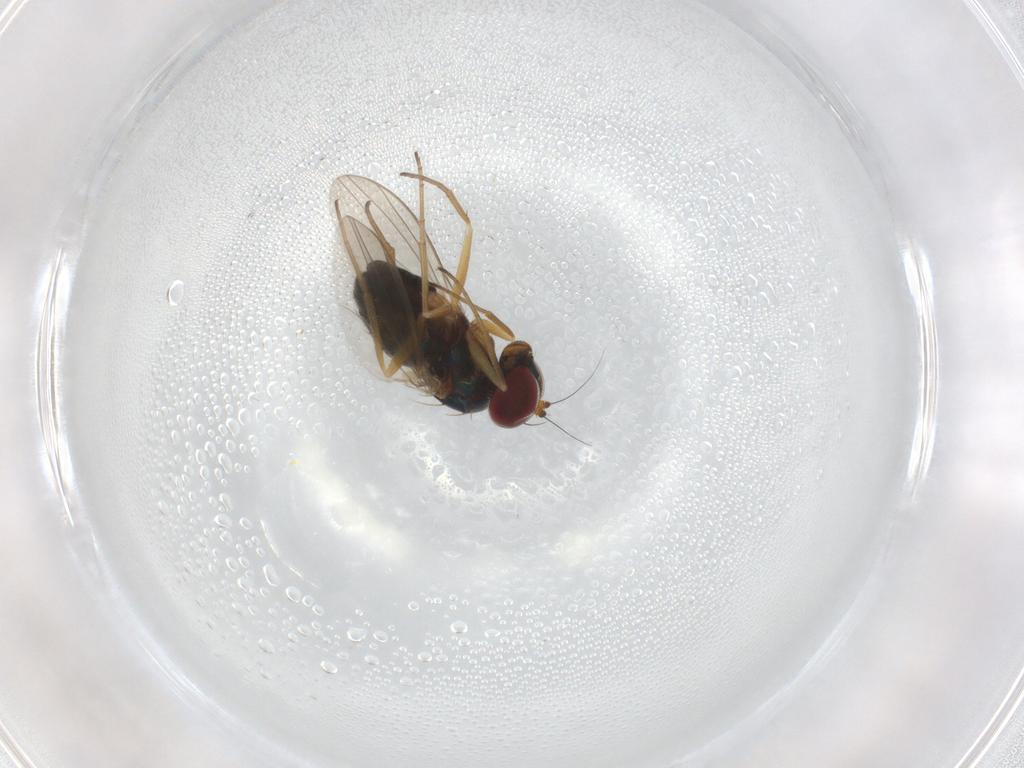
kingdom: Animalia
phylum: Arthropoda
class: Insecta
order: Diptera
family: Dolichopodidae
